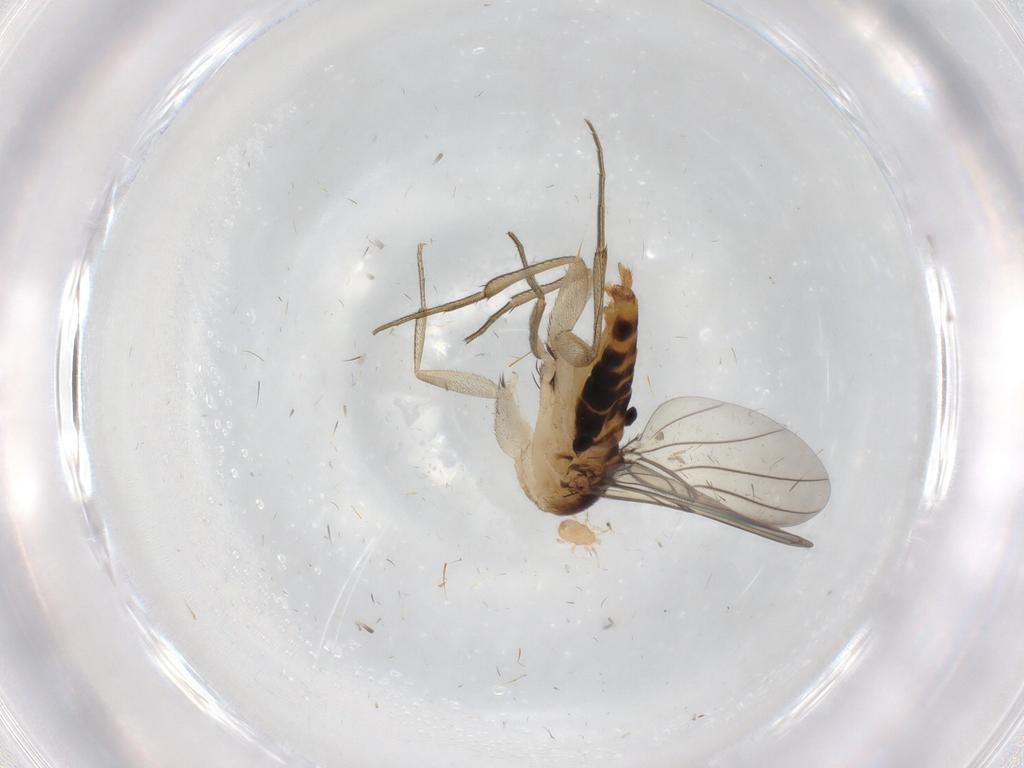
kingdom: Animalia
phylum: Arthropoda
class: Insecta
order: Diptera
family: Phoridae
